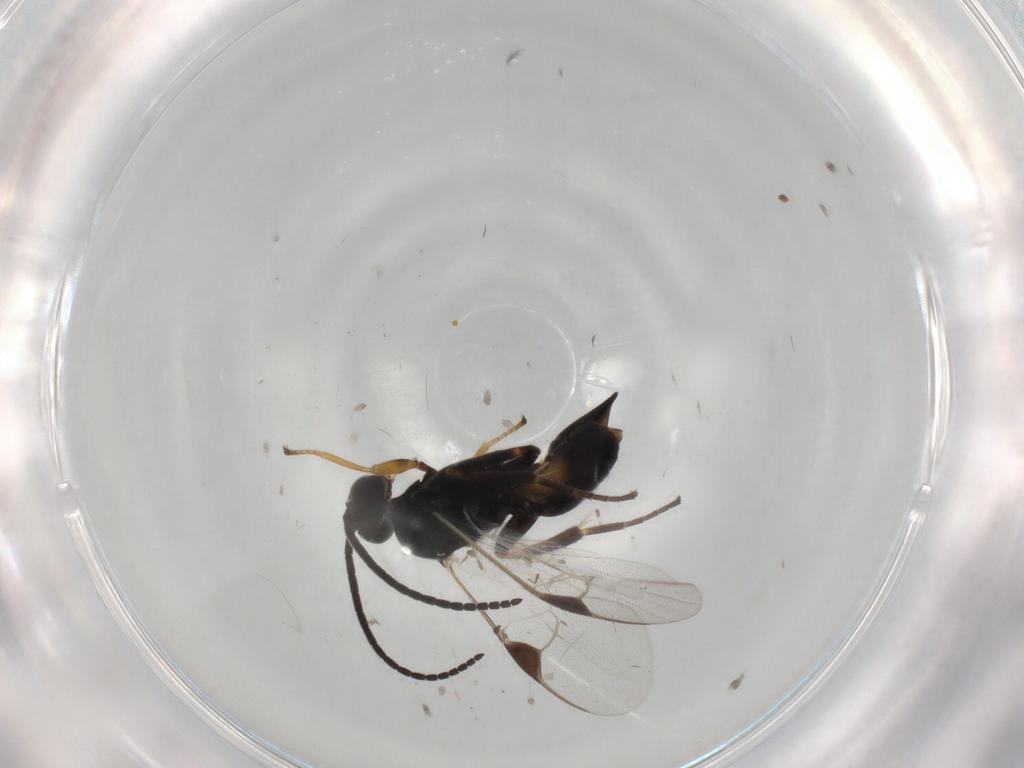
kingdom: Animalia
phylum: Arthropoda
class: Insecta
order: Hymenoptera
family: Braconidae
